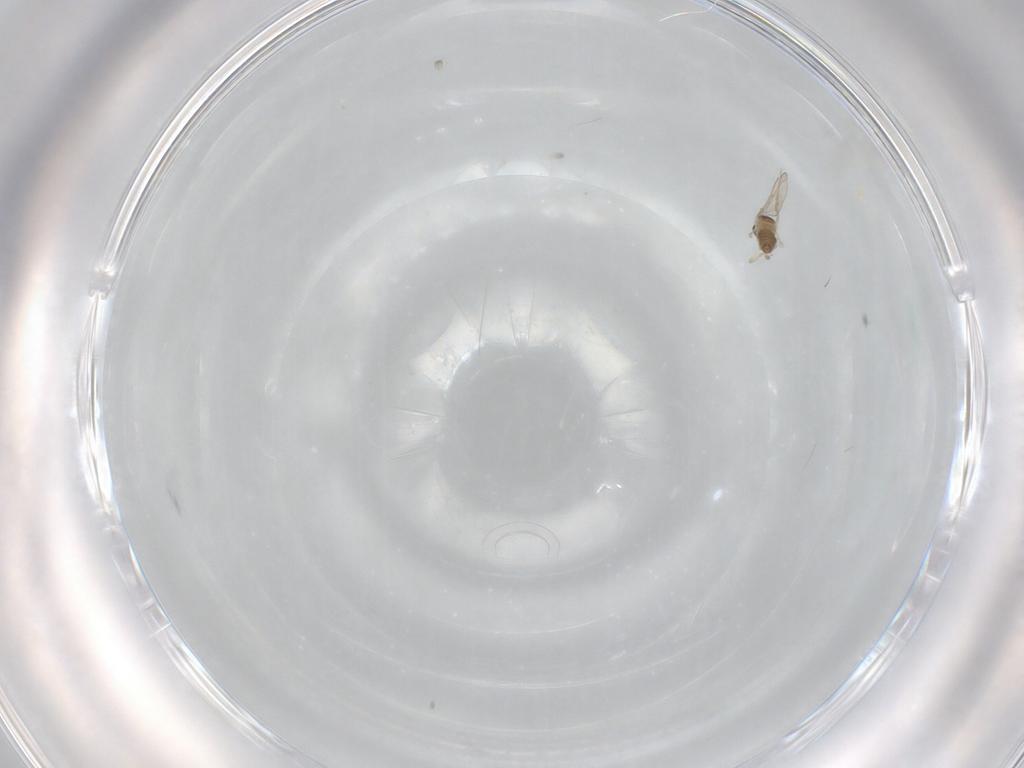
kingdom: Animalia
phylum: Arthropoda
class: Insecta
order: Diptera
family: Cecidomyiidae
